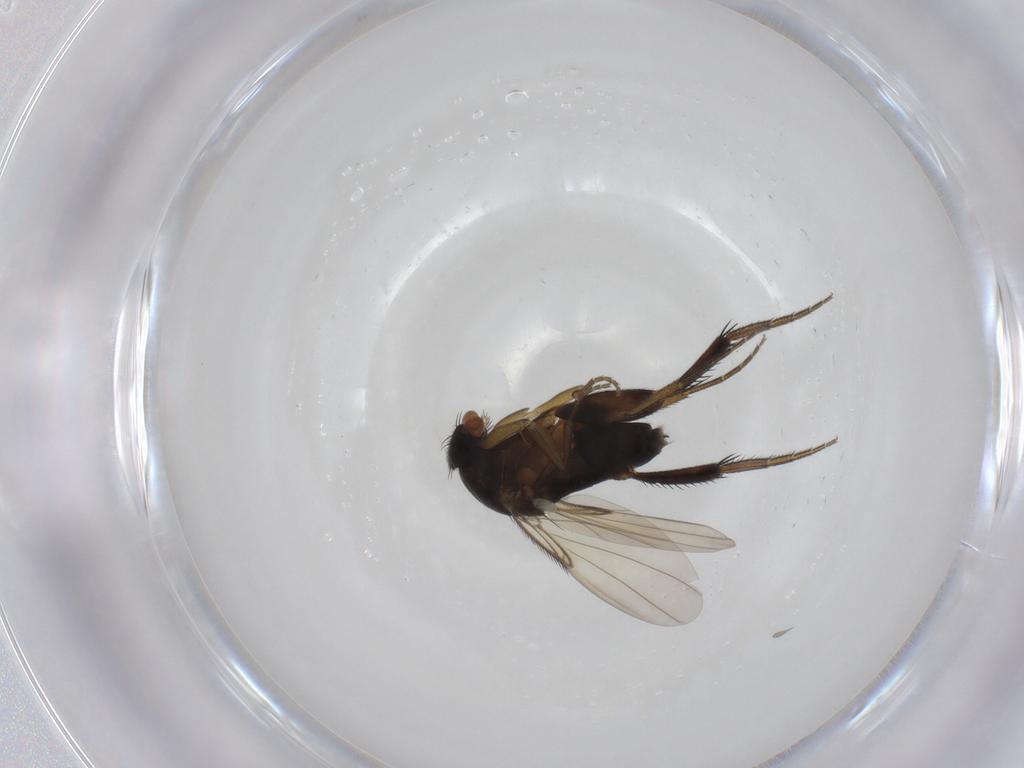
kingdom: Animalia
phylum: Arthropoda
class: Insecta
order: Diptera
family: Phoridae
